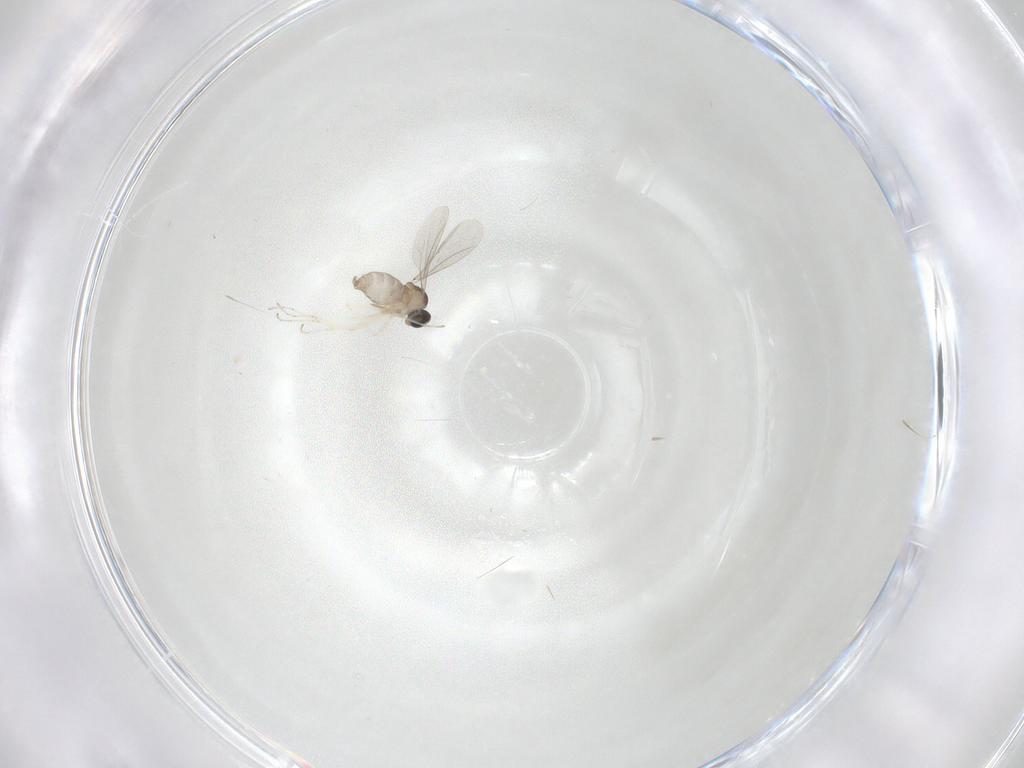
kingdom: Animalia
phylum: Arthropoda
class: Insecta
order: Diptera
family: Cecidomyiidae
